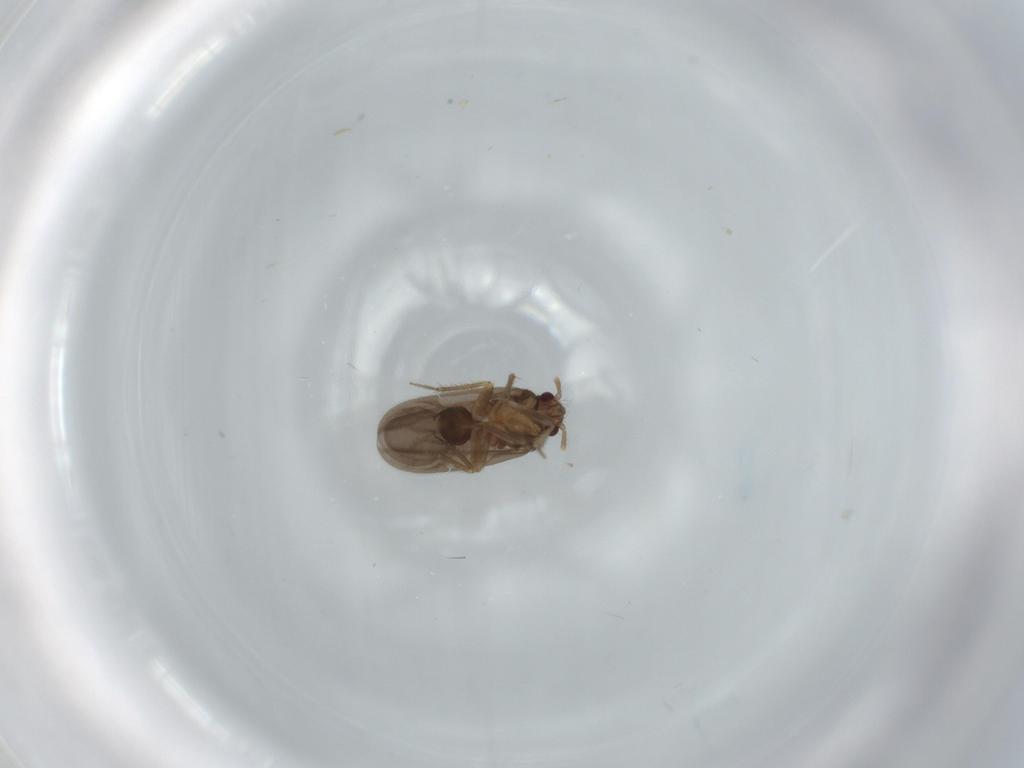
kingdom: Animalia
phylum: Arthropoda
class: Insecta
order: Hemiptera
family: Ceratocombidae
